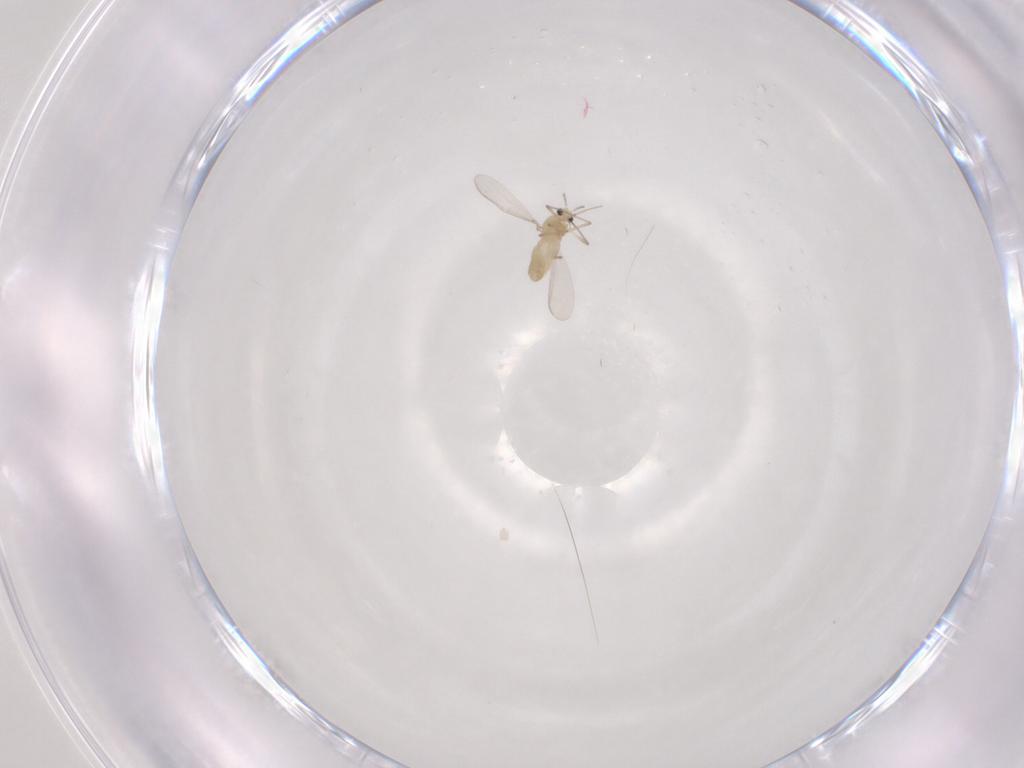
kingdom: Animalia
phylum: Arthropoda
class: Insecta
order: Diptera
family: Chironomidae
